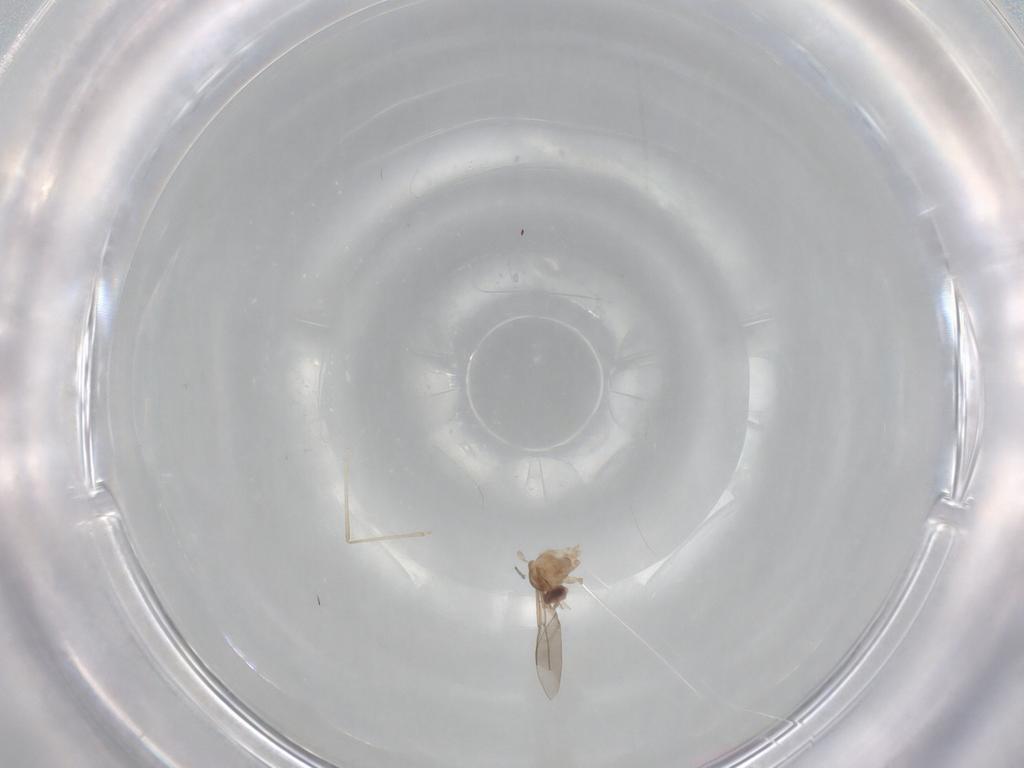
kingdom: Animalia
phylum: Arthropoda
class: Insecta
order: Diptera
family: Cecidomyiidae
